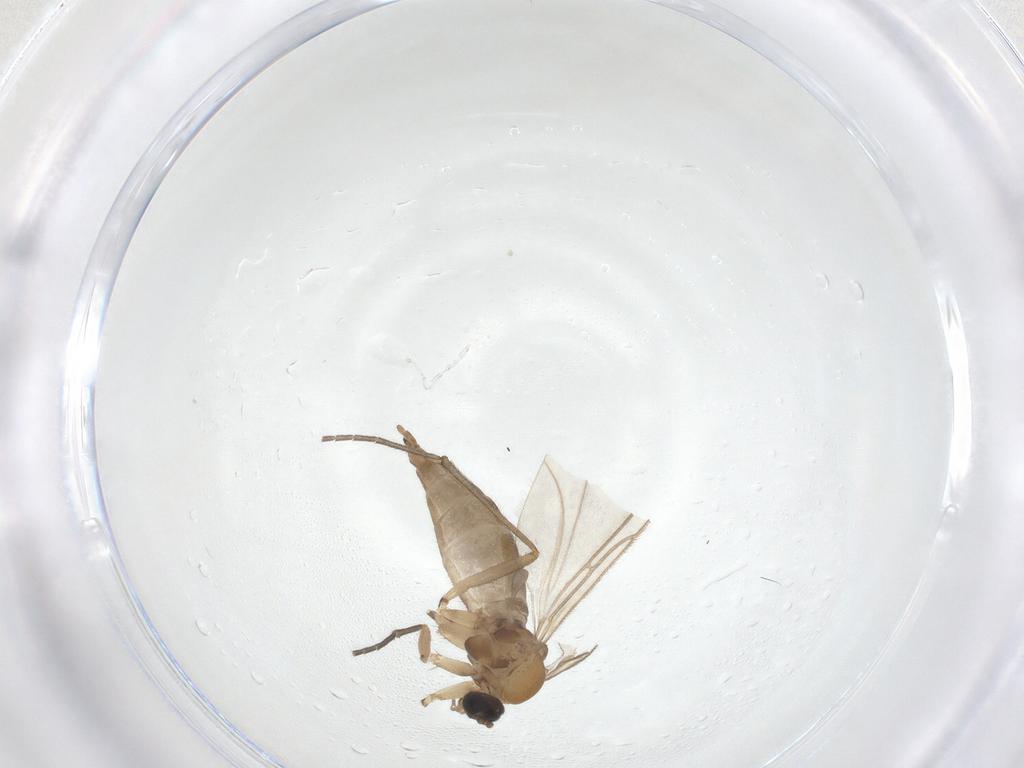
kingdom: Animalia
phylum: Arthropoda
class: Insecta
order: Diptera
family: Sciaridae
